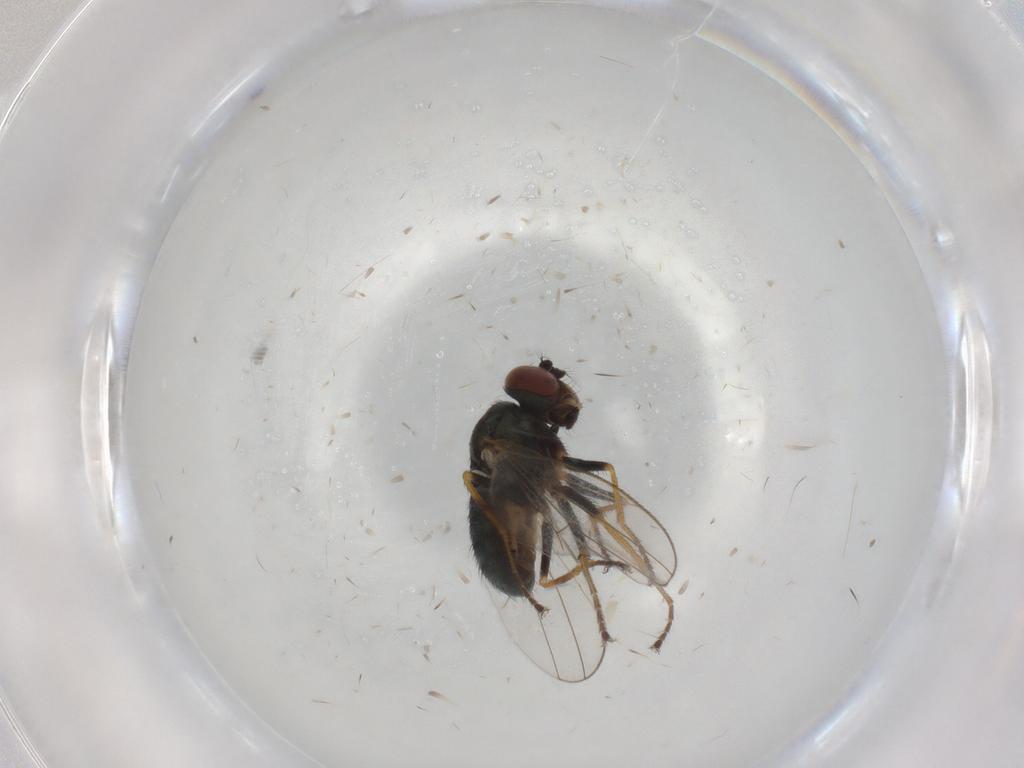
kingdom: Animalia
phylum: Arthropoda
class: Insecta
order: Diptera
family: Ephydridae
